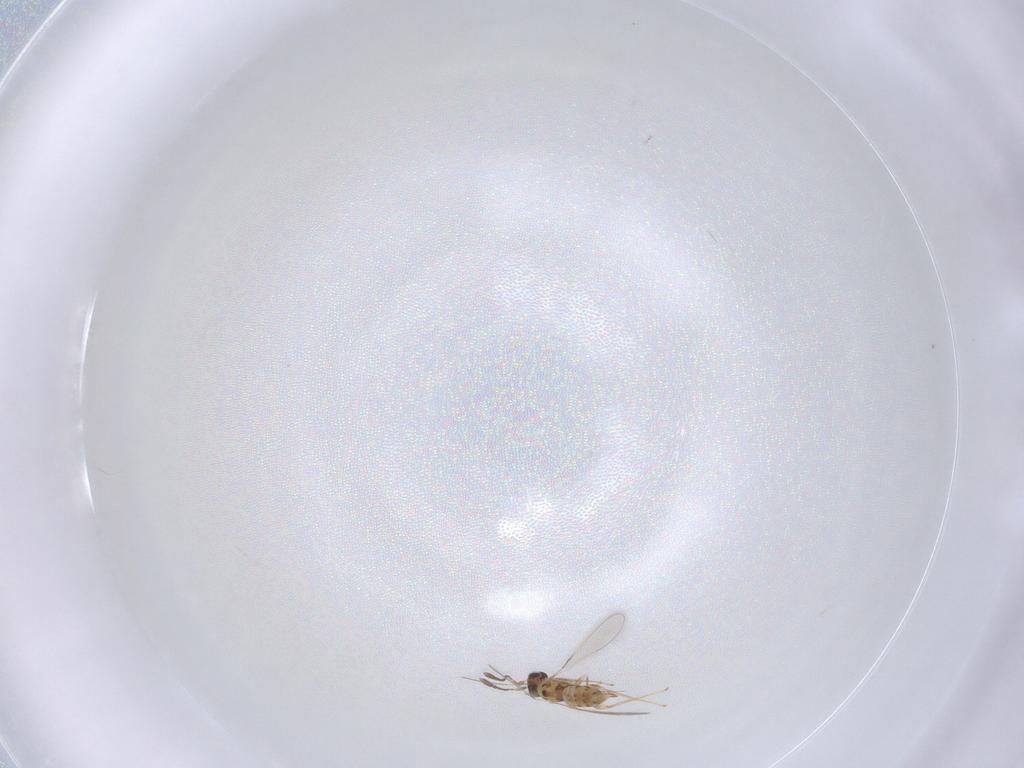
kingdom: Animalia
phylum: Arthropoda
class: Insecta
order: Hymenoptera
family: Mymaridae
